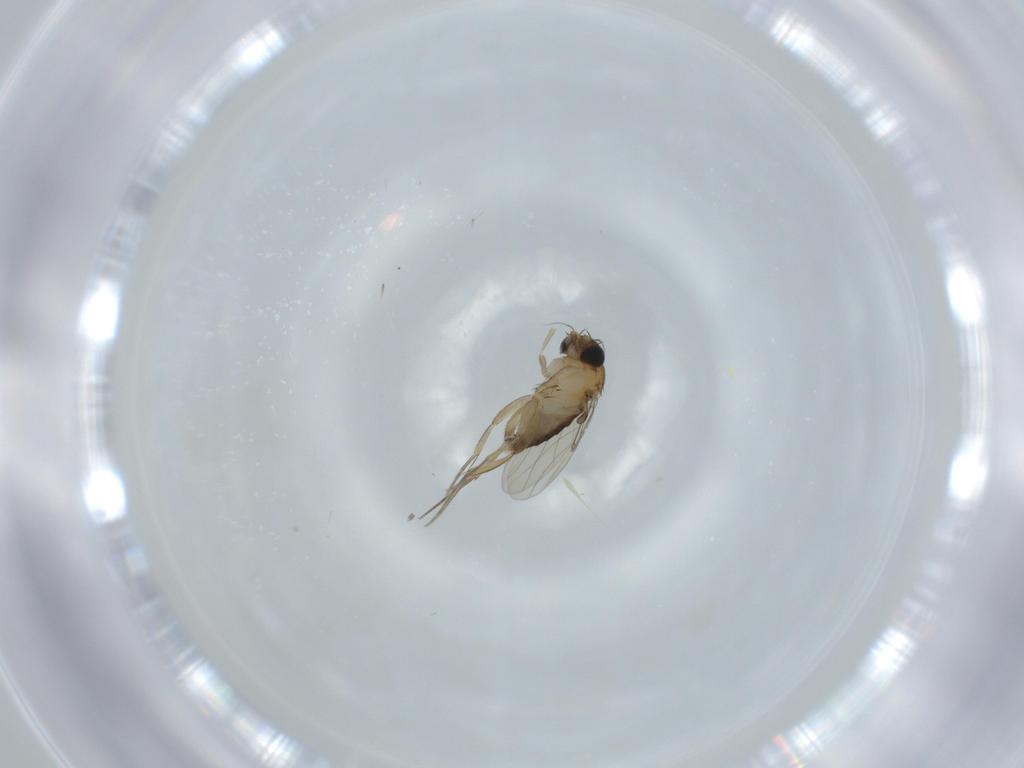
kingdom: Animalia
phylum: Arthropoda
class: Insecta
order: Diptera
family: Phoridae
